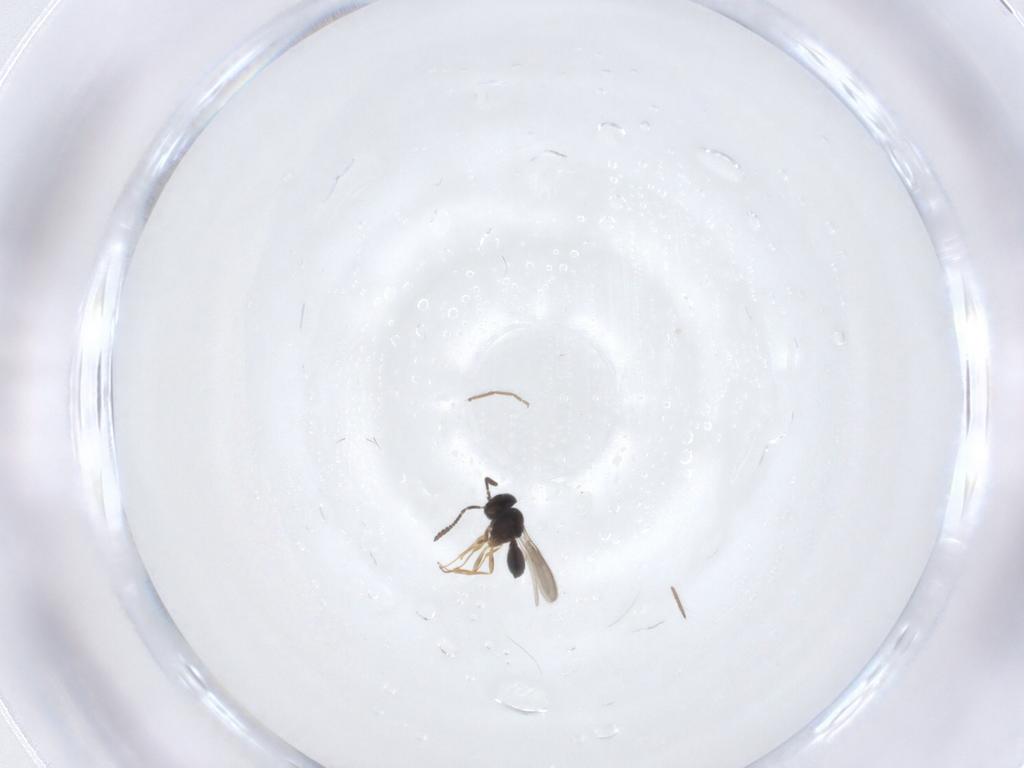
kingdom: Animalia
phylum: Arthropoda
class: Insecta
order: Hymenoptera
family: Scelionidae
